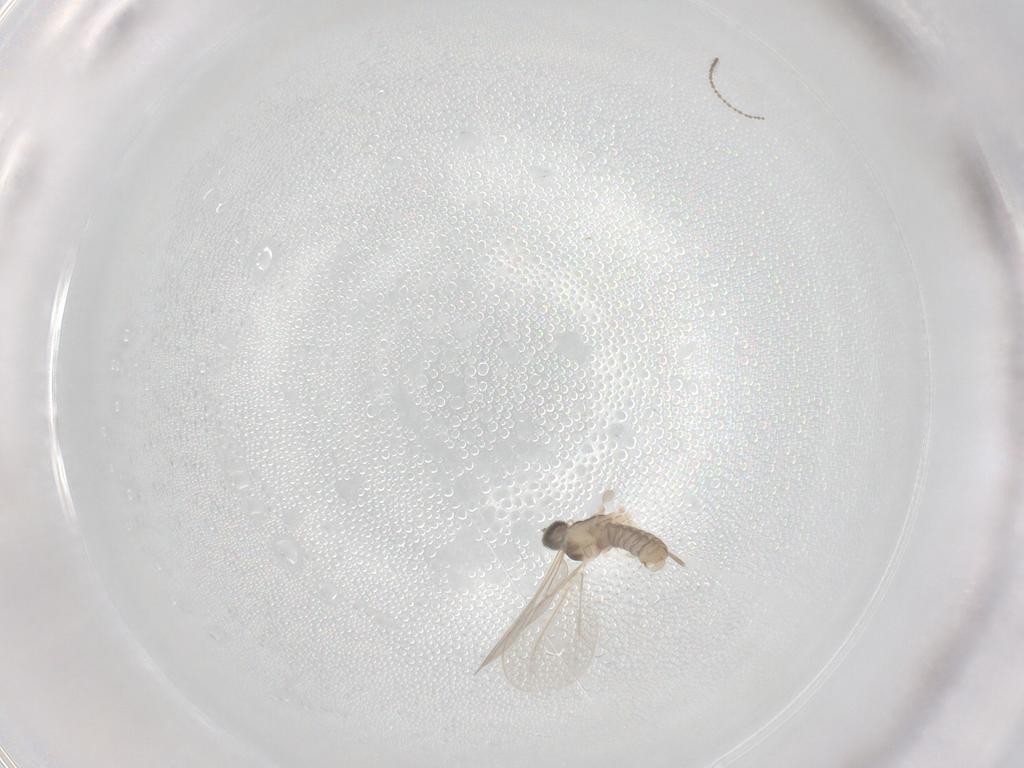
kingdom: Animalia
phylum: Arthropoda
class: Insecta
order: Diptera
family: Cecidomyiidae
